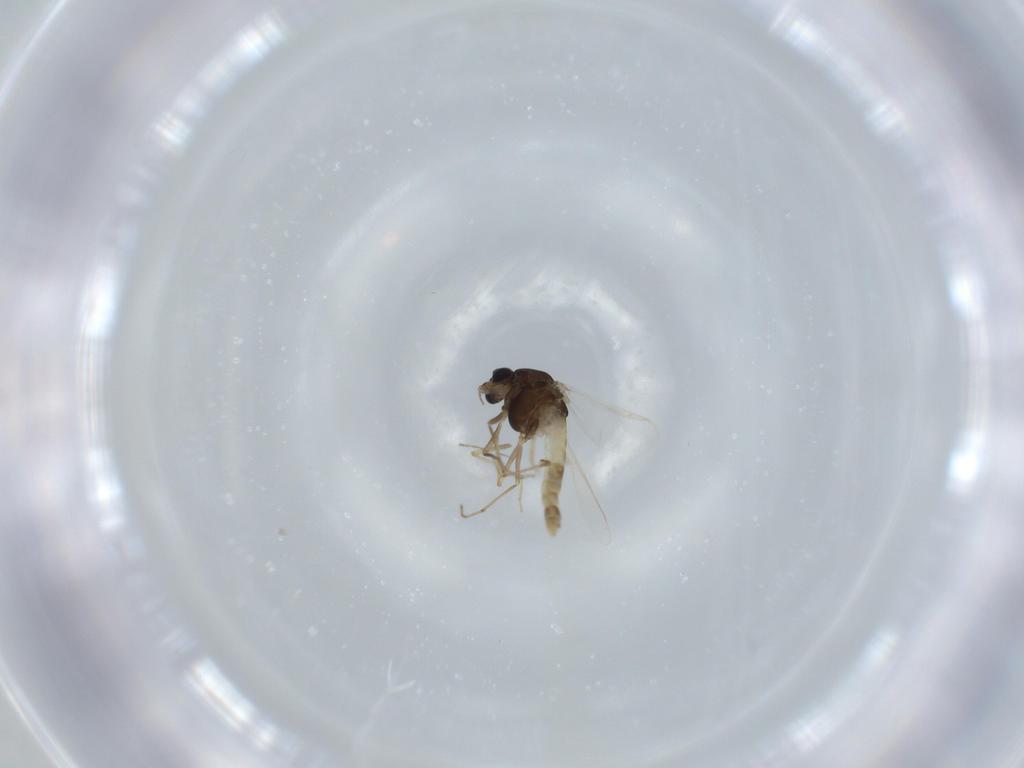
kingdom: Animalia
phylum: Arthropoda
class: Insecta
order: Diptera
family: Chironomidae
